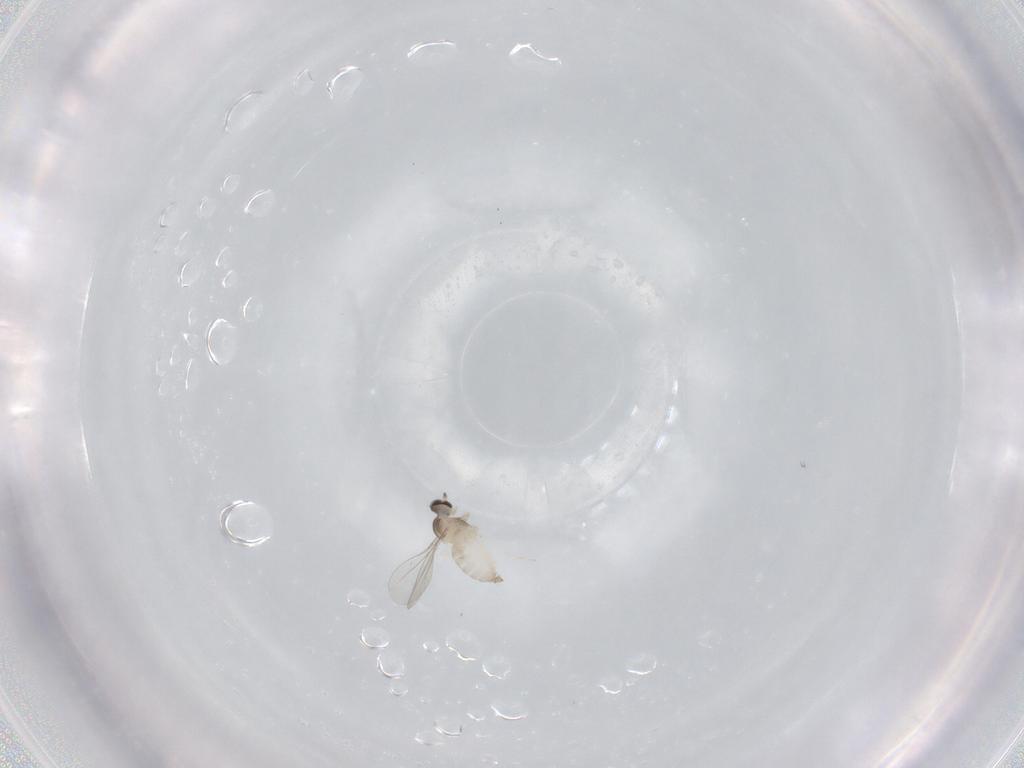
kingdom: Animalia
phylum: Arthropoda
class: Insecta
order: Diptera
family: Cecidomyiidae
